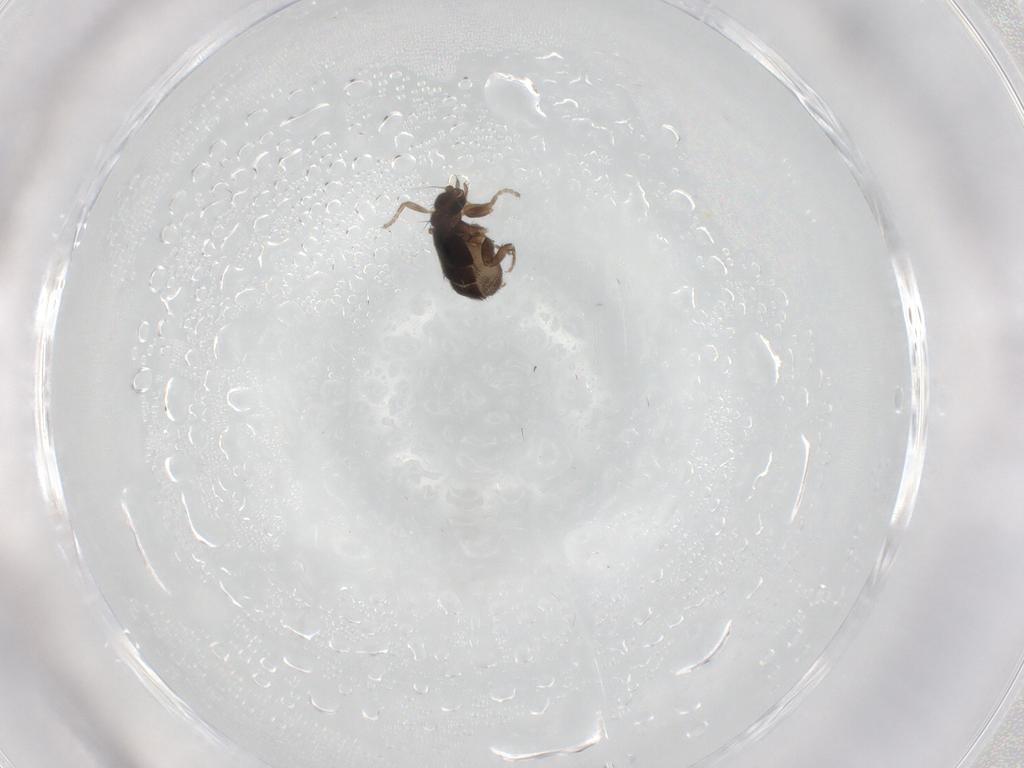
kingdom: Animalia
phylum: Arthropoda
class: Insecta
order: Diptera
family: Phoridae
